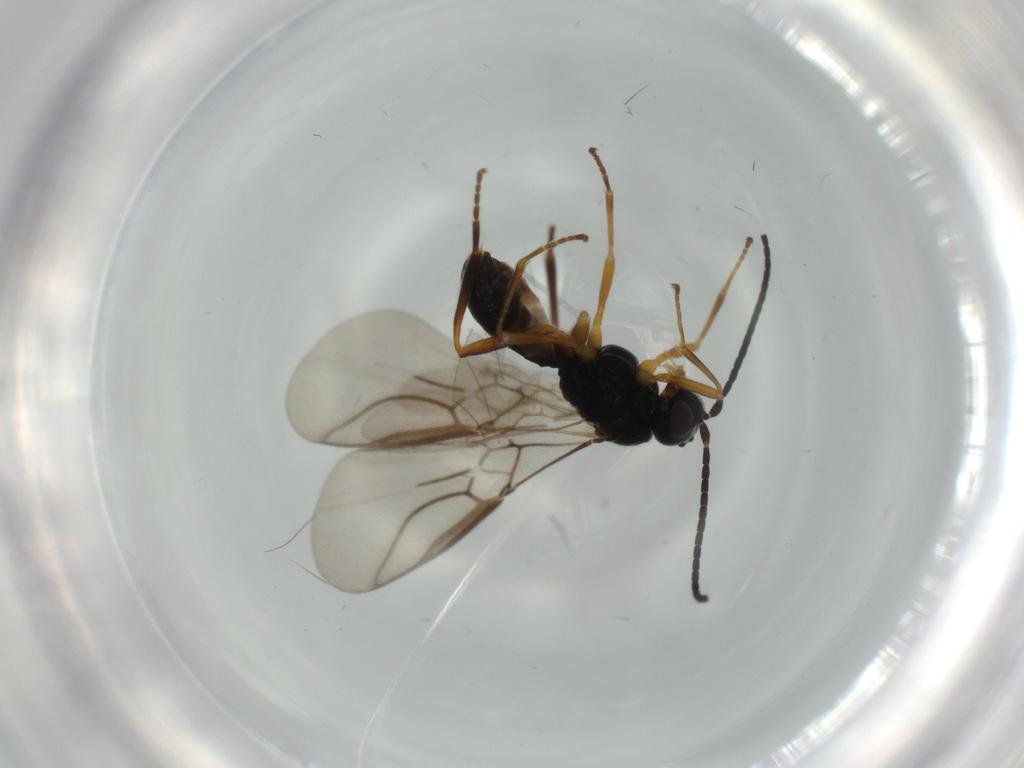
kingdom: Animalia
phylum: Arthropoda
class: Insecta
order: Hymenoptera
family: Braconidae
